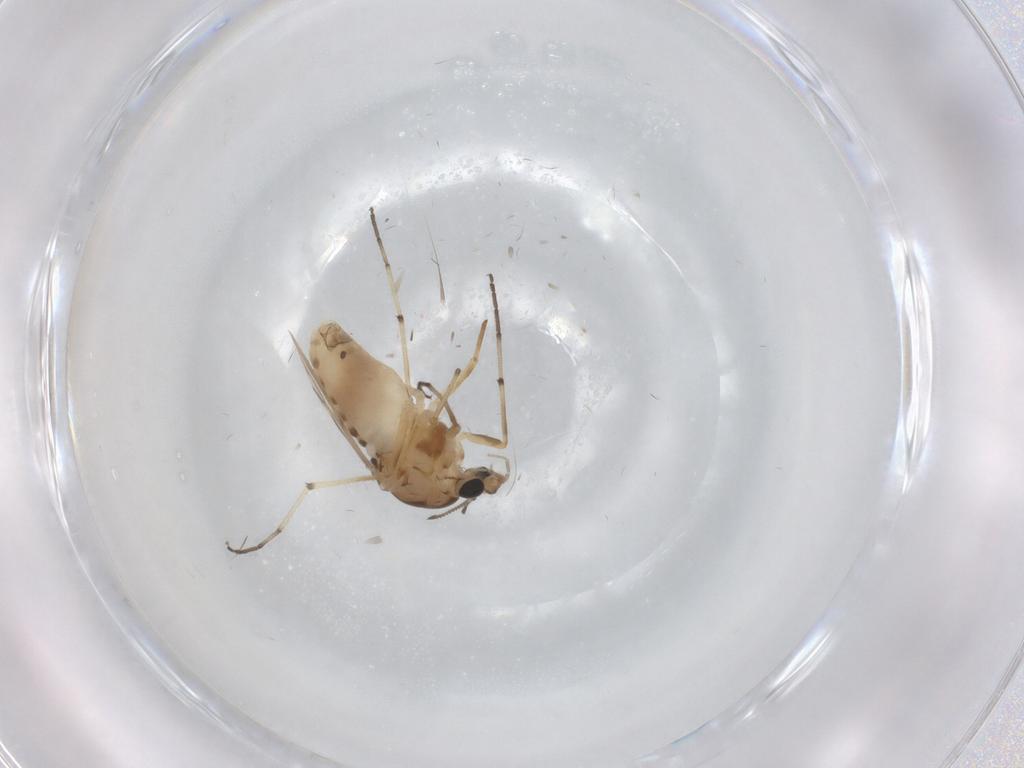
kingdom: Animalia
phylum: Arthropoda
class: Insecta
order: Diptera
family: Chironomidae
